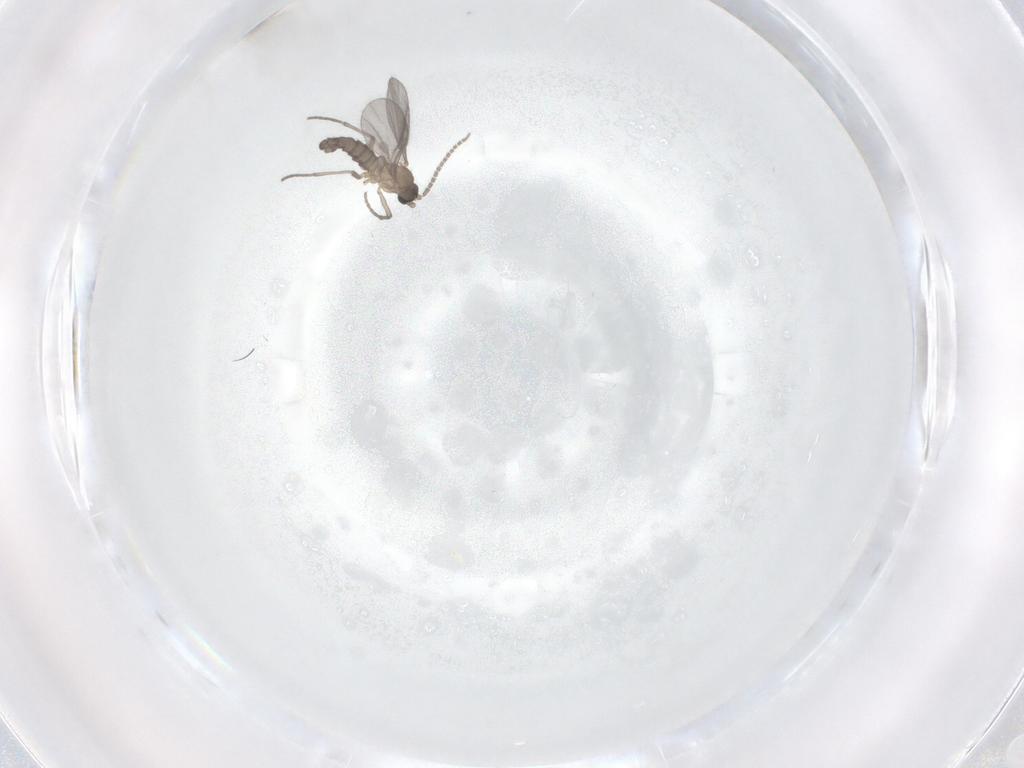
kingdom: Animalia
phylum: Arthropoda
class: Insecta
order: Diptera
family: Sciaridae
